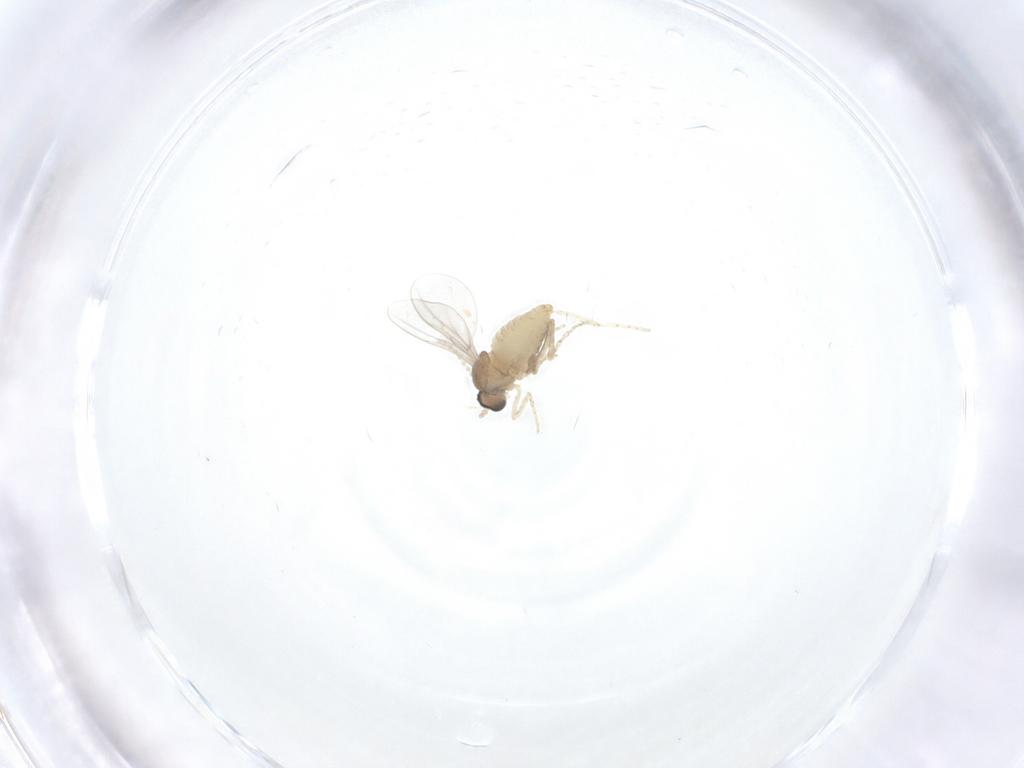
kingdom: Animalia
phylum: Arthropoda
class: Insecta
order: Diptera
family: Cecidomyiidae
